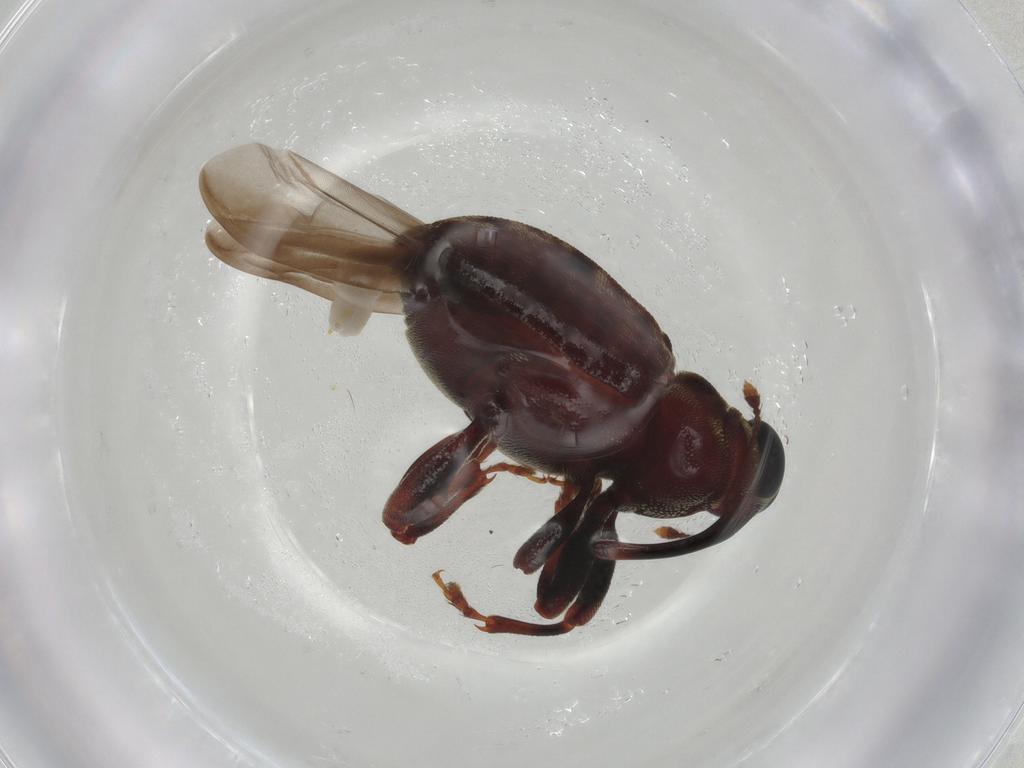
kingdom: Animalia
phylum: Arthropoda
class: Insecta
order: Coleoptera
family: Curculionidae
